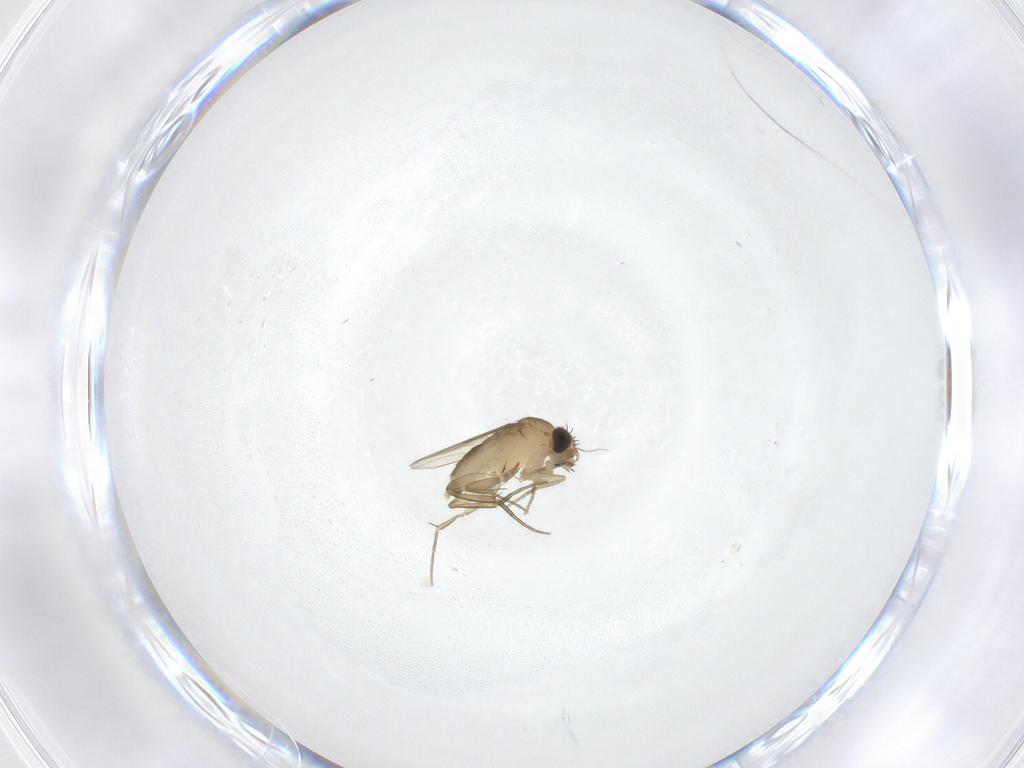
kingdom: Animalia
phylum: Arthropoda
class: Insecta
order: Diptera
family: Phoridae
